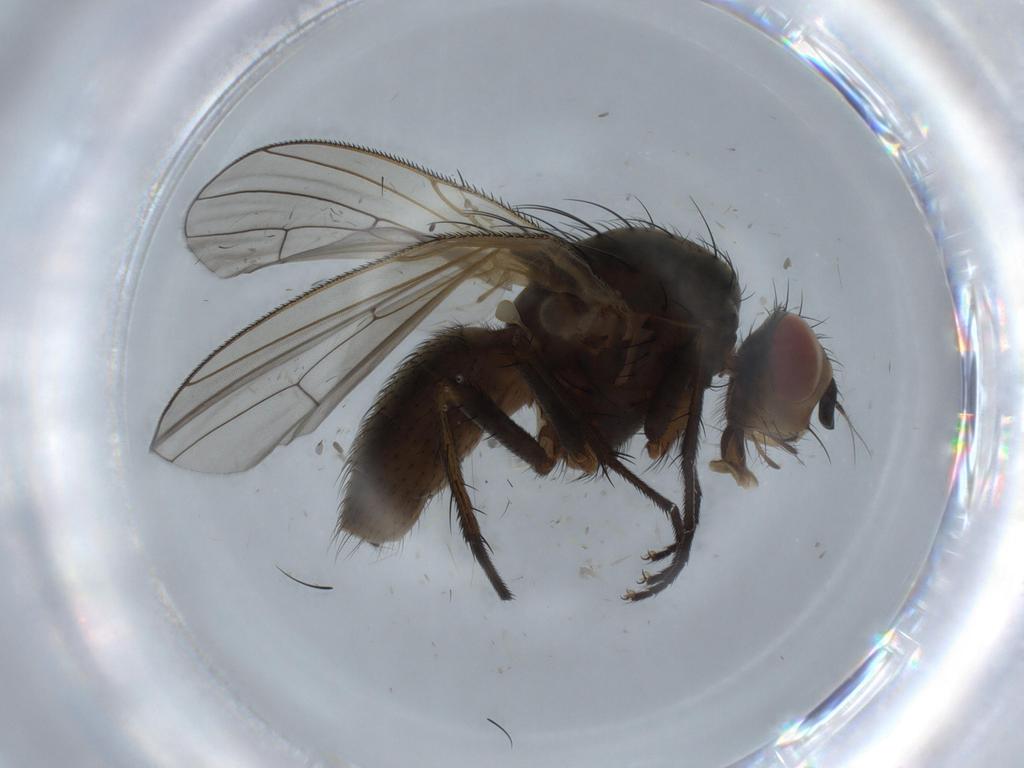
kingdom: Animalia
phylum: Arthropoda
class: Insecta
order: Diptera
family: Anthomyiidae
